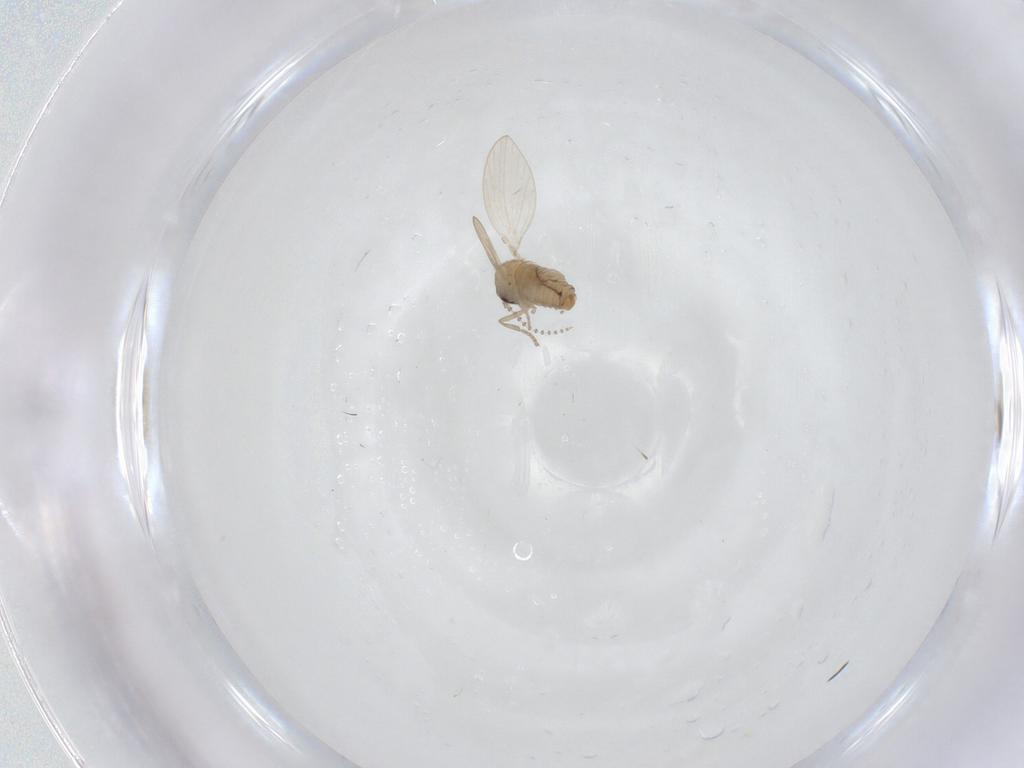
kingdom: Animalia
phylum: Arthropoda
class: Insecta
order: Diptera
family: Psychodidae
